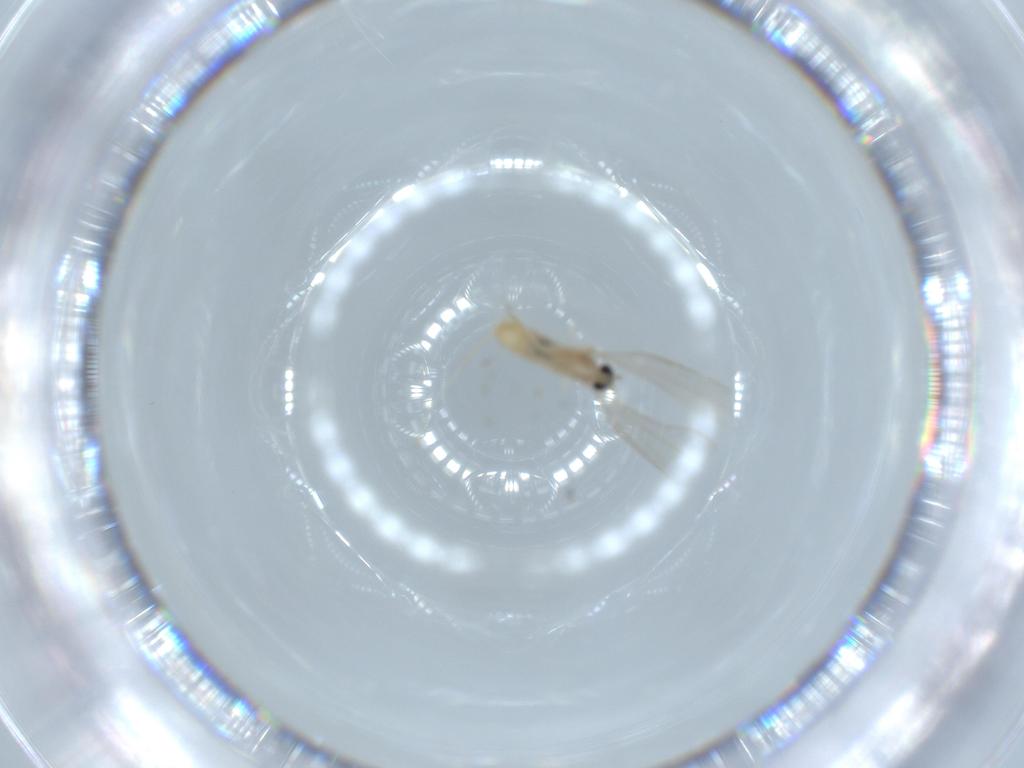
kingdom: Animalia
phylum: Arthropoda
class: Insecta
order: Diptera
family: Cecidomyiidae
